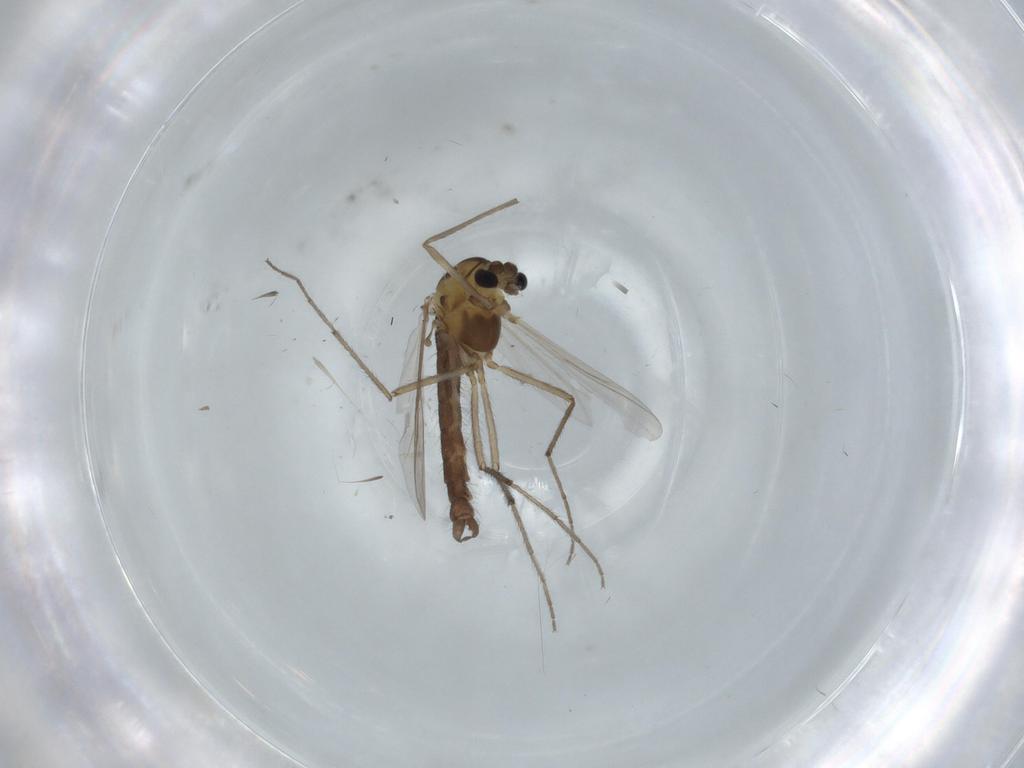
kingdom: Animalia
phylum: Arthropoda
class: Insecta
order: Diptera
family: Chironomidae
